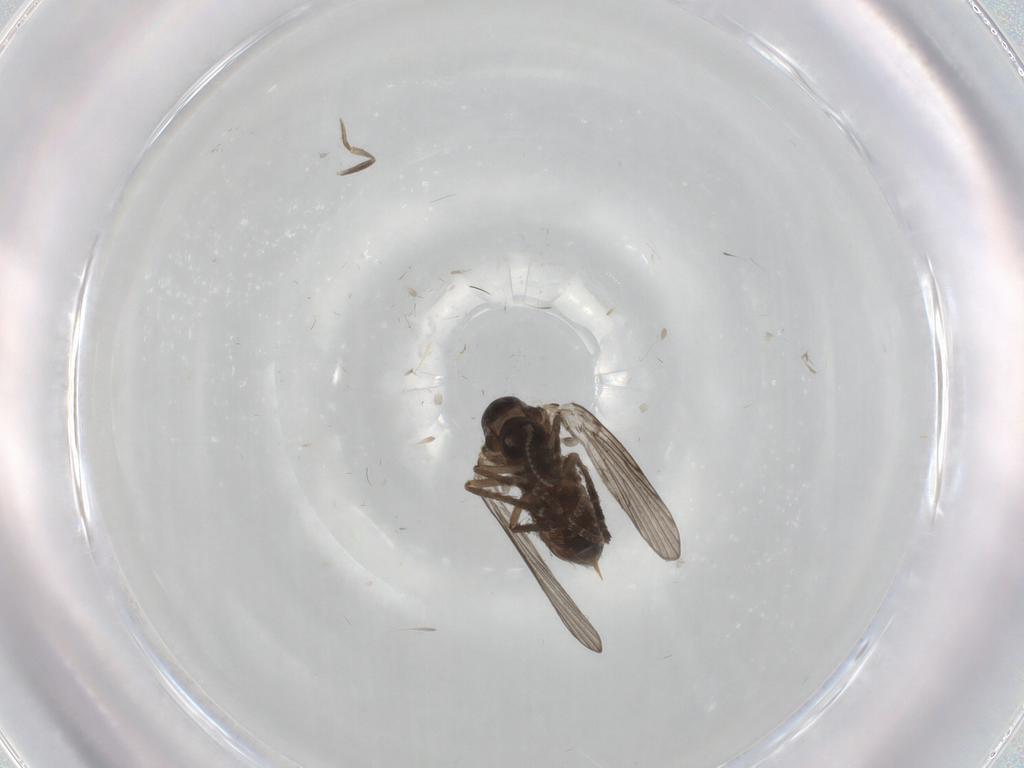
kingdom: Animalia
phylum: Arthropoda
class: Insecta
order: Diptera
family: Psychodidae
